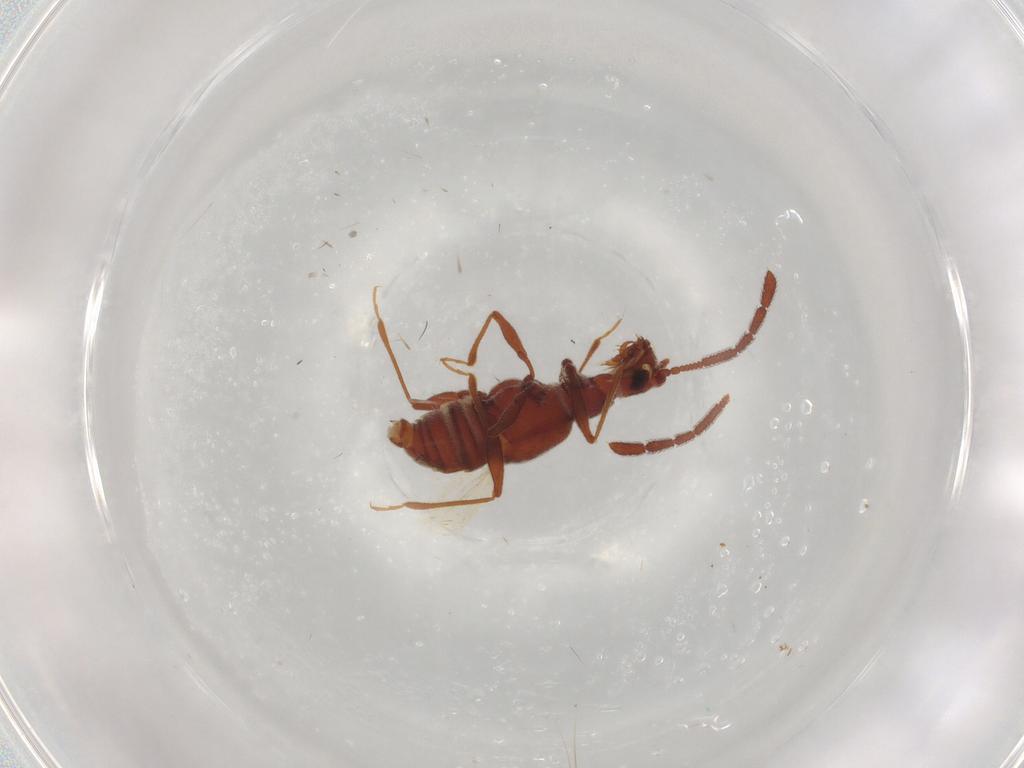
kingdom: Animalia
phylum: Arthropoda
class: Insecta
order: Coleoptera
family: Staphylinidae
